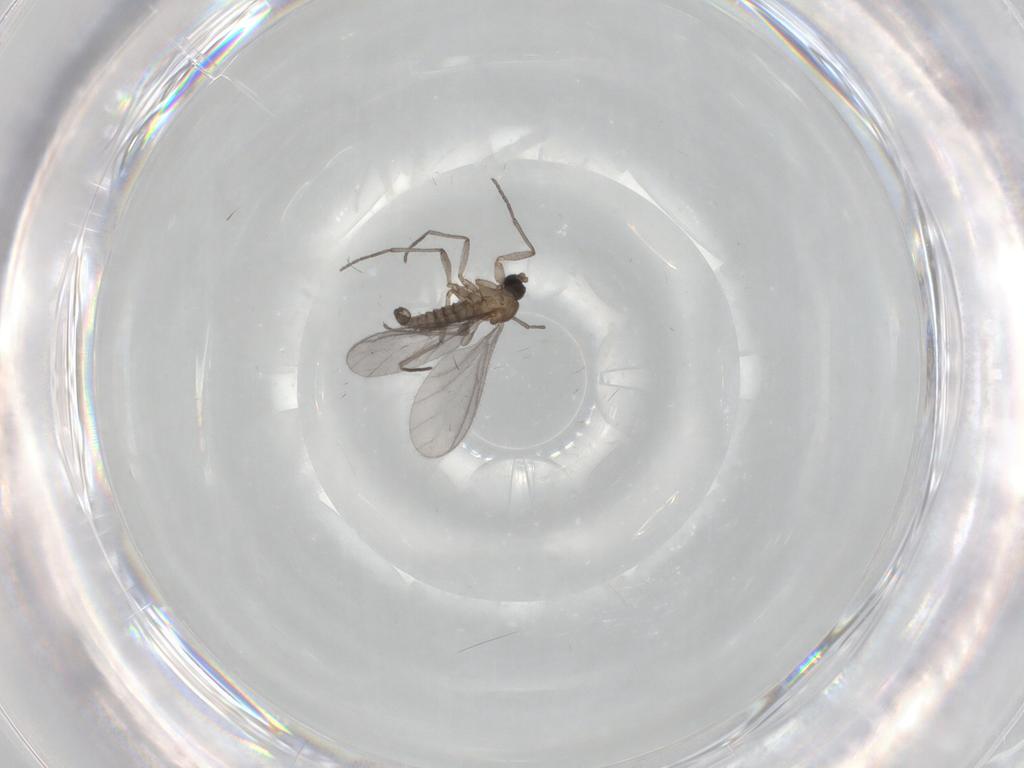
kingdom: Animalia
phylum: Arthropoda
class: Insecta
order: Diptera
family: Sciaridae
